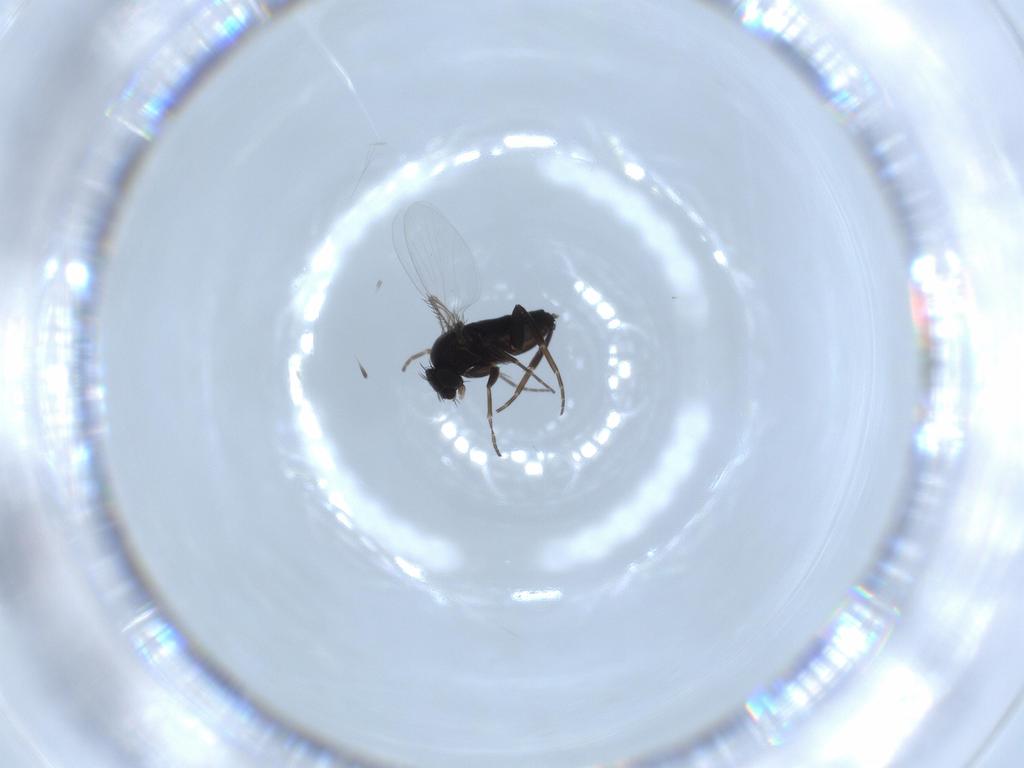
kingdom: Animalia
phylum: Arthropoda
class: Insecta
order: Diptera
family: Phoridae
